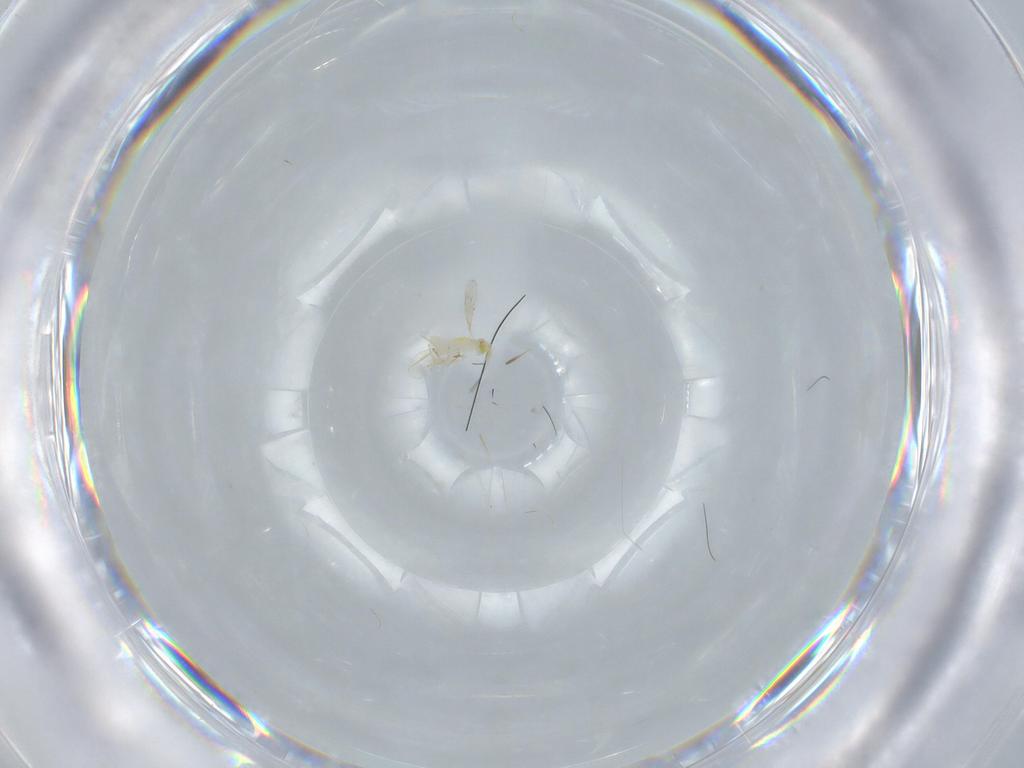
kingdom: Animalia
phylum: Arthropoda
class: Insecta
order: Hymenoptera
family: Aphelinidae
